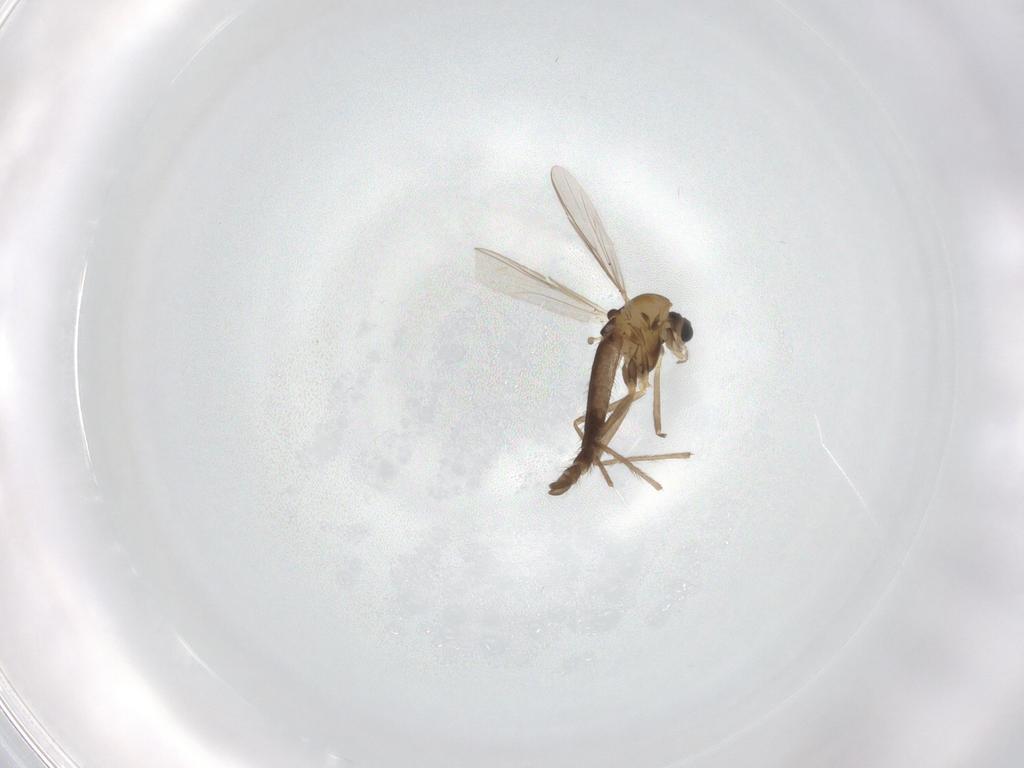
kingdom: Animalia
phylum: Arthropoda
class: Insecta
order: Diptera
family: Chironomidae
